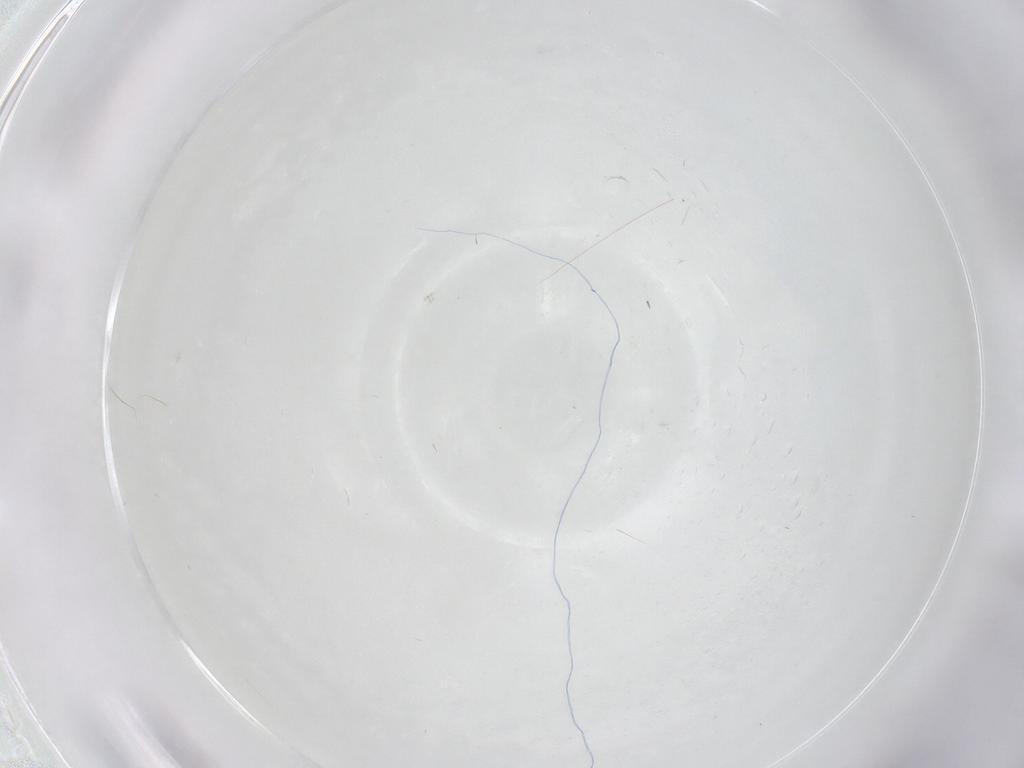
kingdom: Animalia
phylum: Arthropoda
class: Insecta
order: Diptera
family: Cecidomyiidae
